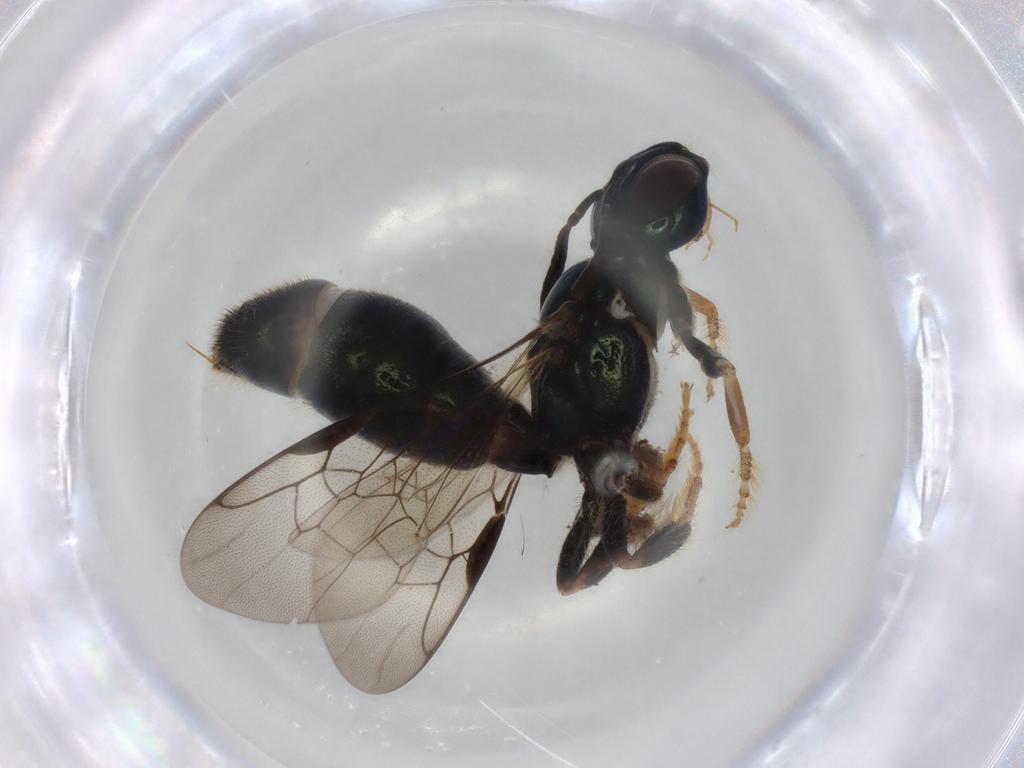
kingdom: Animalia
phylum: Arthropoda
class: Insecta
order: Hymenoptera
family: Apidae
